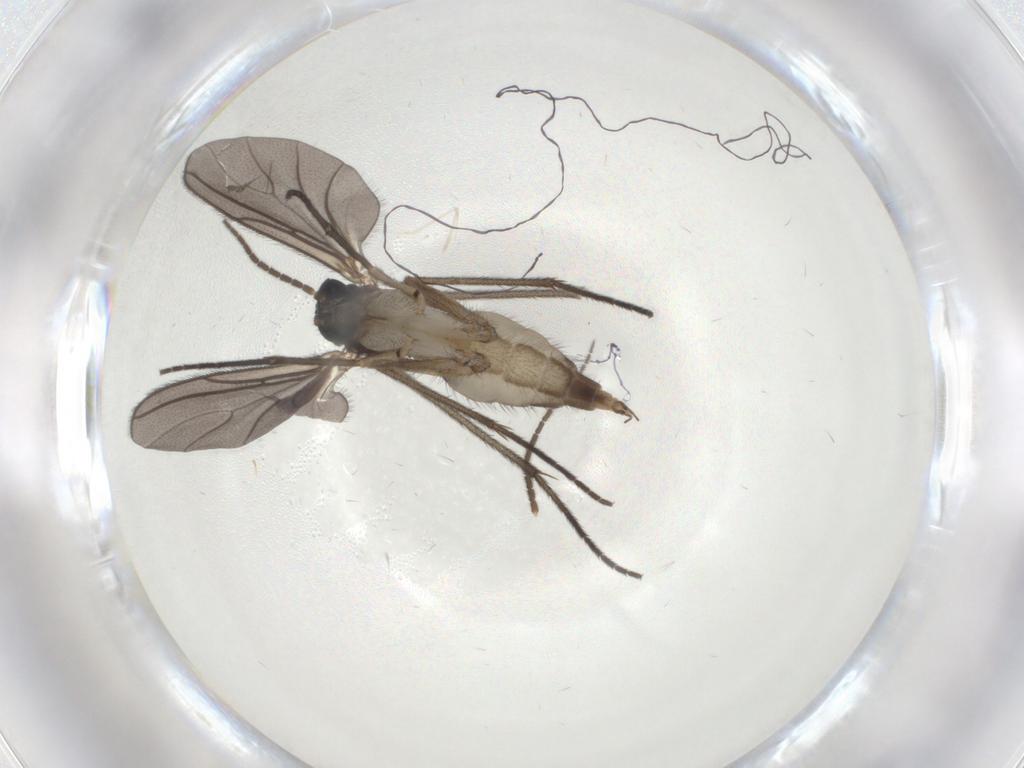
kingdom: Animalia
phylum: Arthropoda
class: Insecta
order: Diptera
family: Sciaridae
